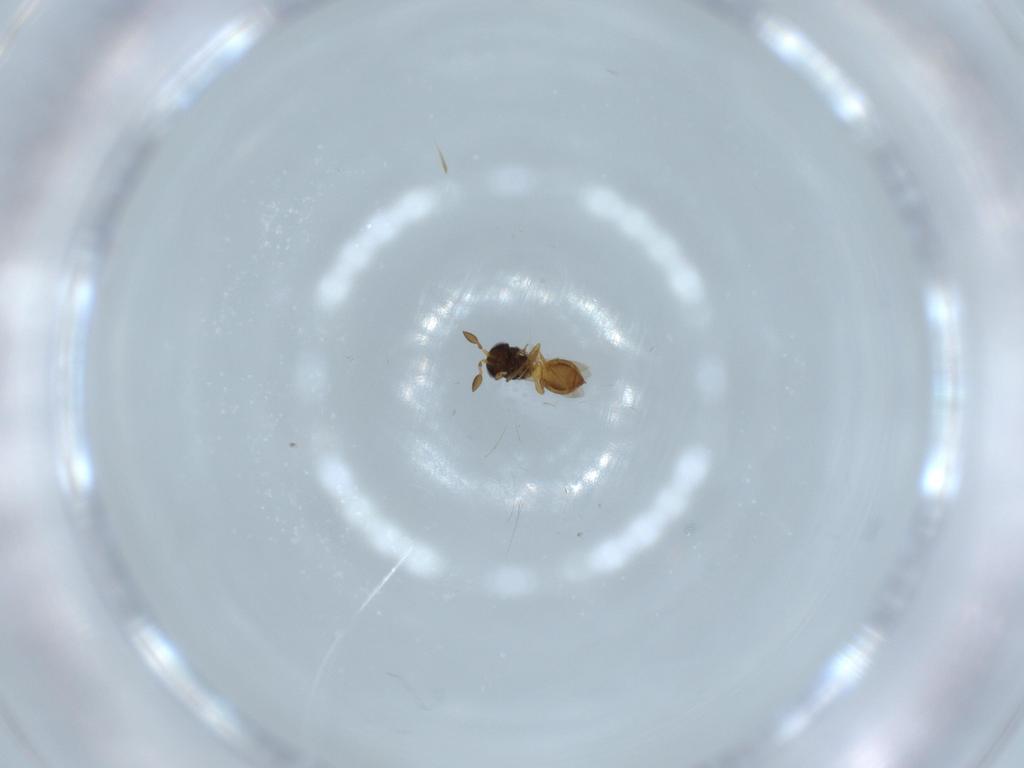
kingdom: Animalia
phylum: Arthropoda
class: Insecta
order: Hymenoptera
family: Scelionidae
